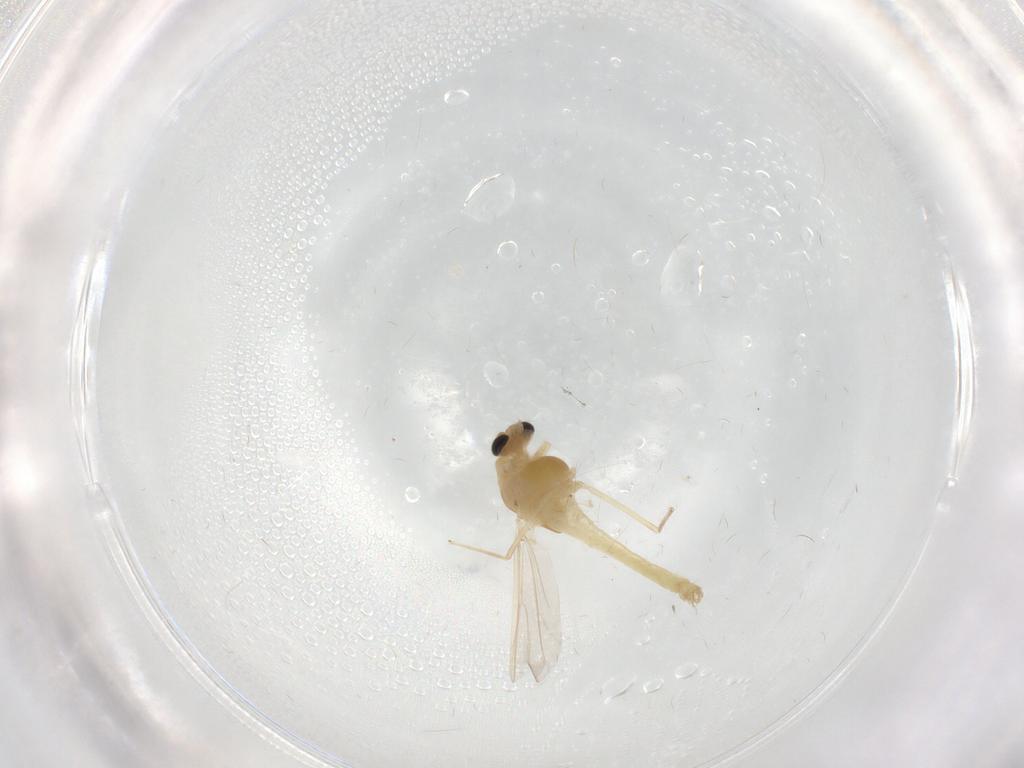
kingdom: Animalia
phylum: Arthropoda
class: Insecta
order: Diptera
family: Chironomidae
